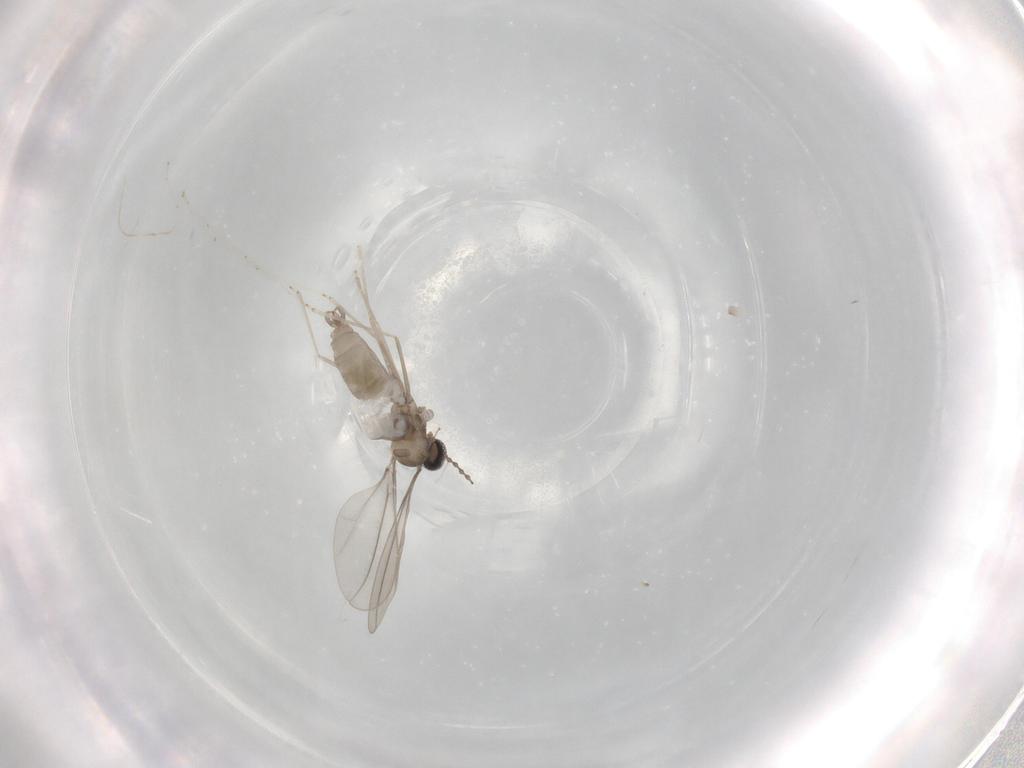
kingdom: Animalia
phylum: Arthropoda
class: Insecta
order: Diptera
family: Cecidomyiidae
